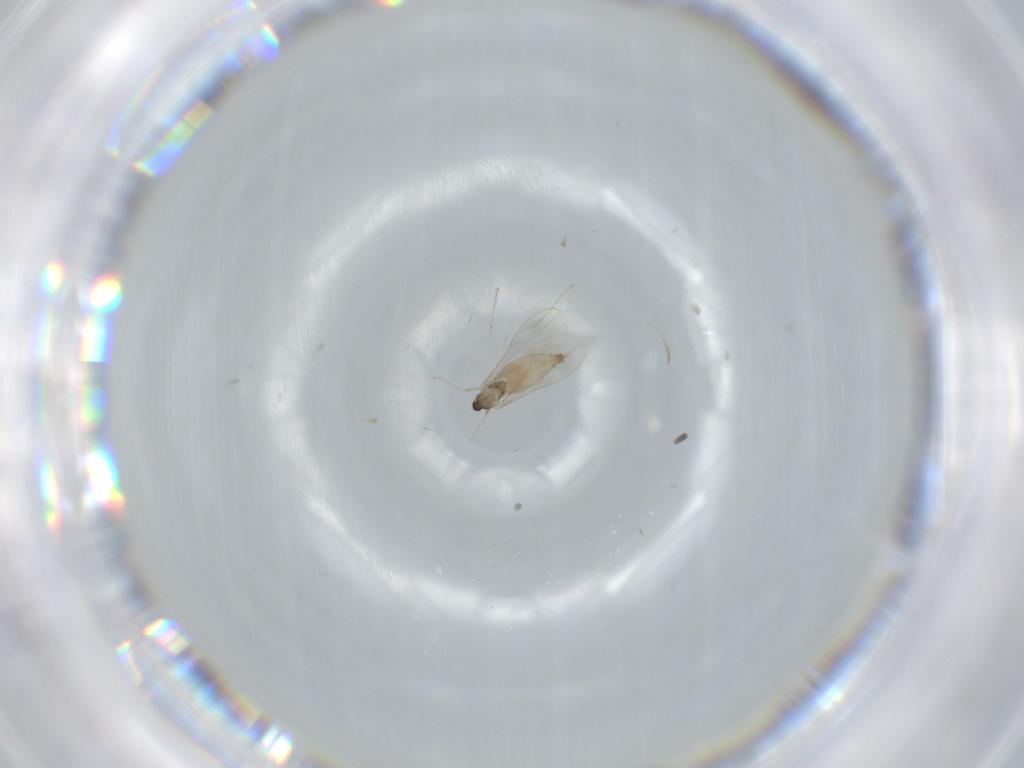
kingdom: Animalia
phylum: Arthropoda
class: Insecta
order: Diptera
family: Cecidomyiidae
